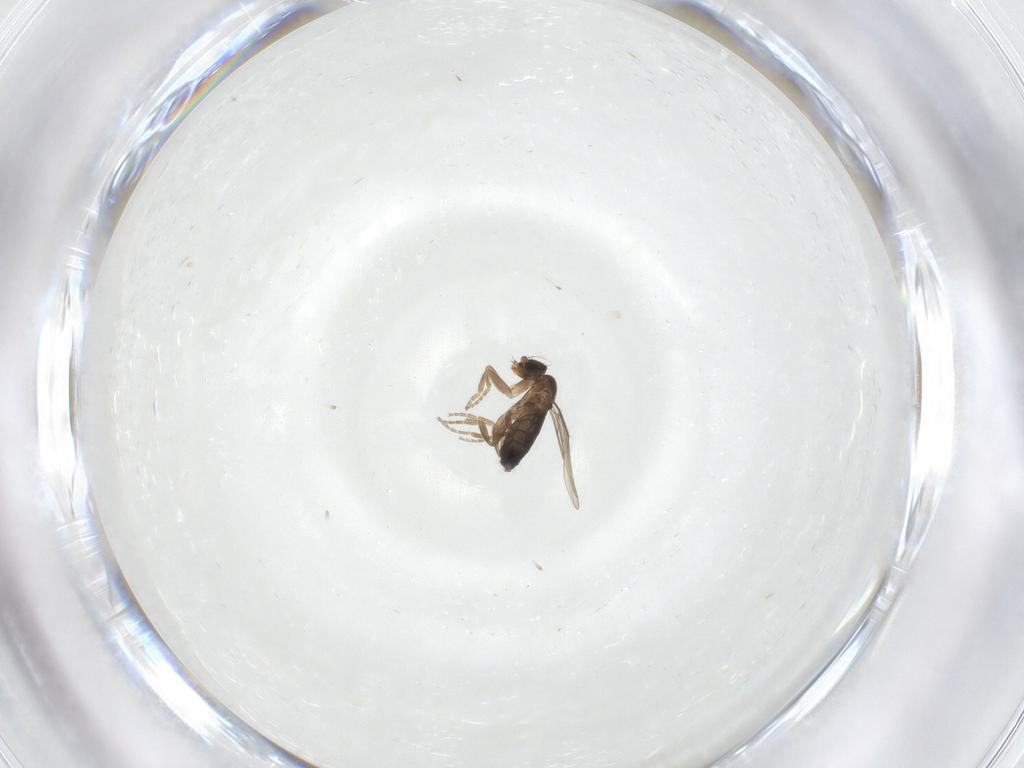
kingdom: Animalia
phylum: Arthropoda
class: Insecta
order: Diptera
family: Phoridae
